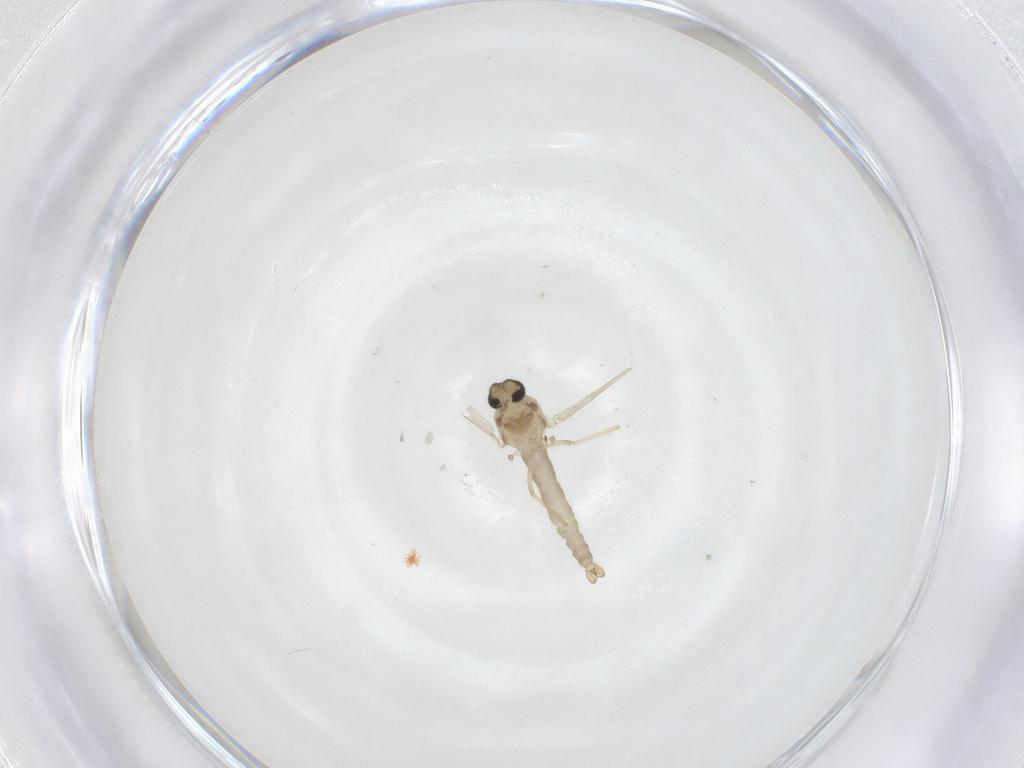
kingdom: Animalia
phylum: Arthropoda
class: Insecta
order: Diptera
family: Ceratopogonidae
